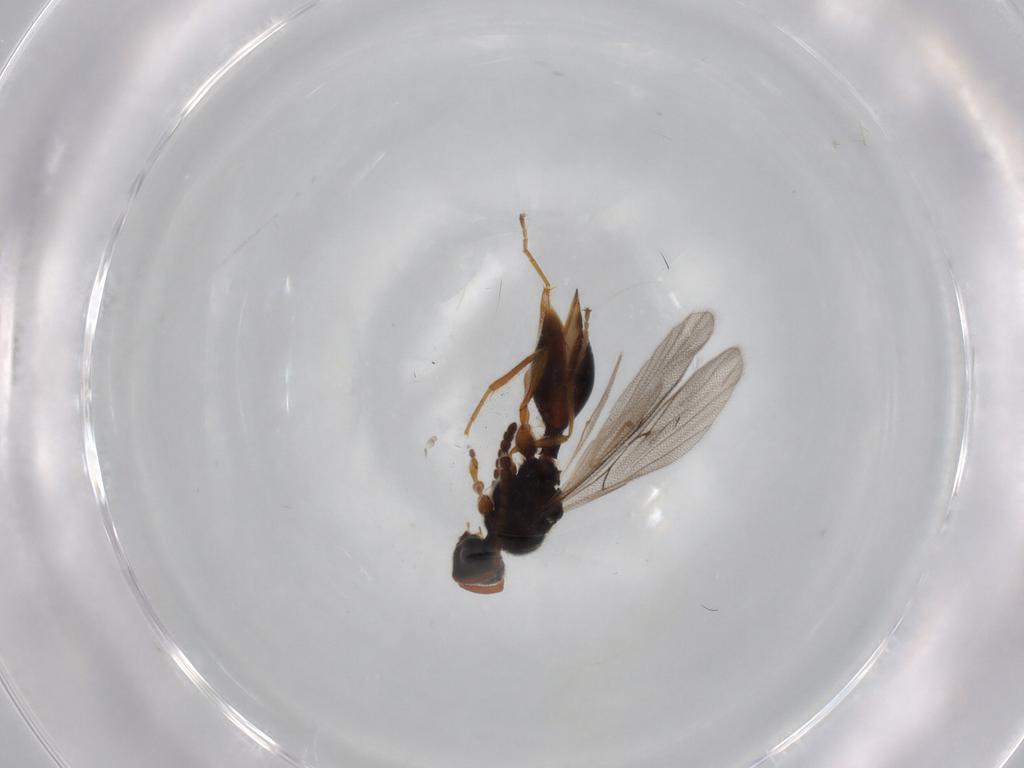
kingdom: Animalia
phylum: Arthropoda
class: Insecta
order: Hymenoptera
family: Diapriidae
